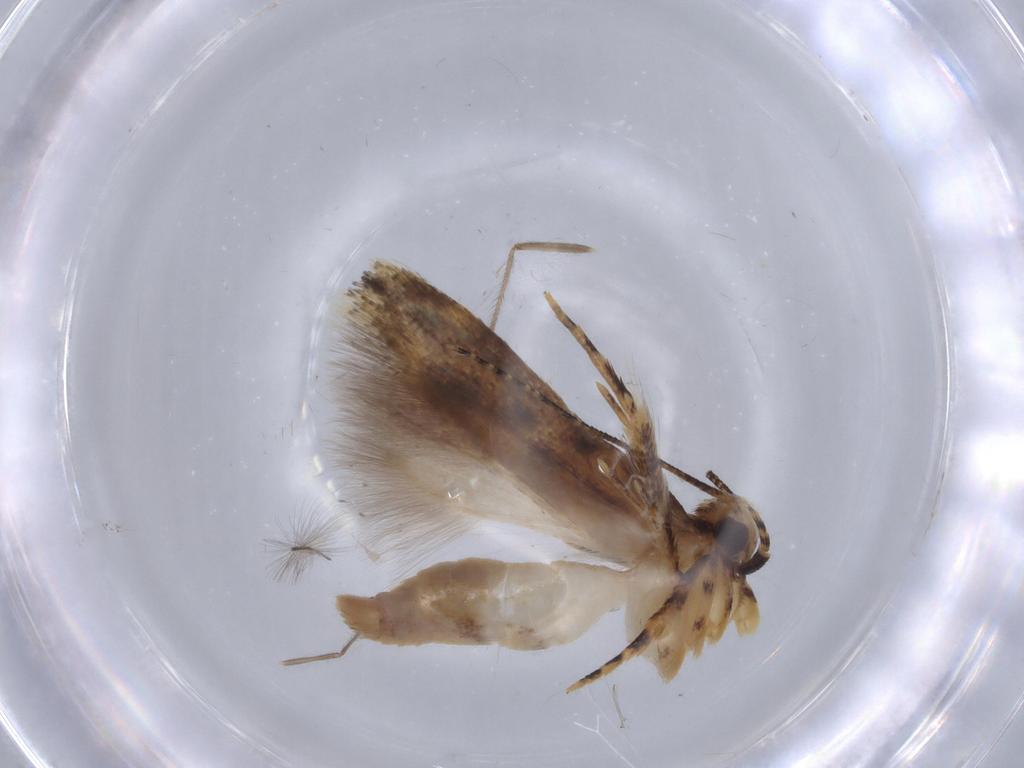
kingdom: Animalia
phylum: Arthropoda
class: Insecta
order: Lepidoptera
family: Gelechiidae
